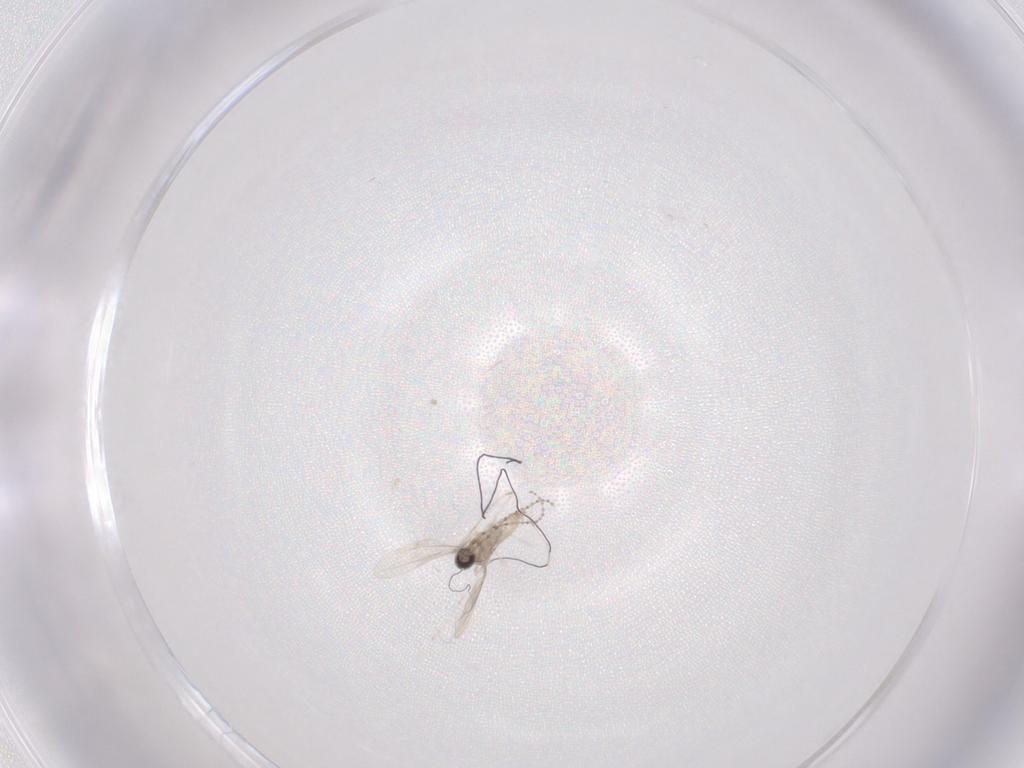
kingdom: Animalia
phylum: Arthropoda
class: Insecta
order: Diptera
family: Cecidomyiidae
